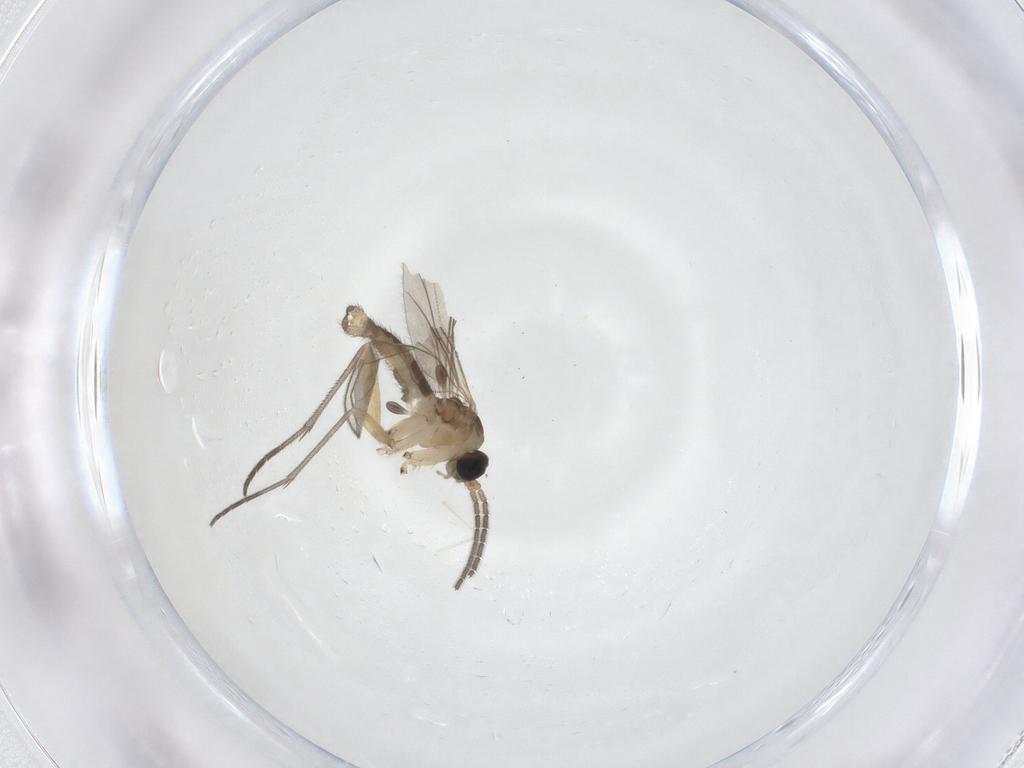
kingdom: Animalia
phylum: Arthropoda
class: Insecta
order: Diptera
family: Sciaridae
